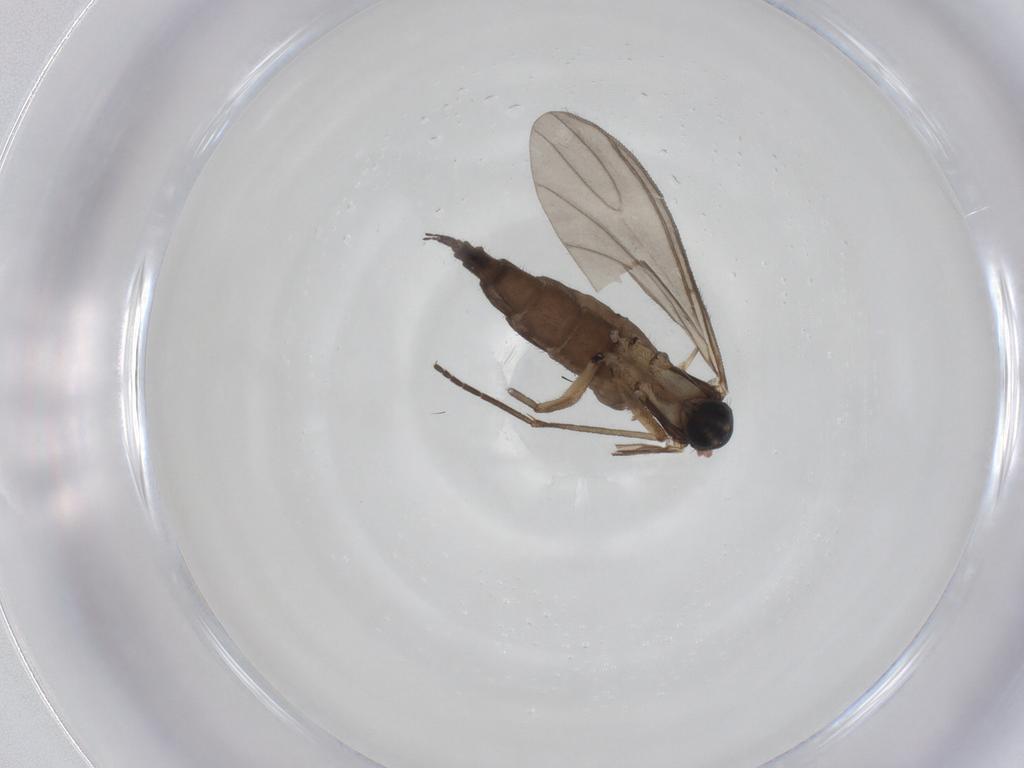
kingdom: Animalia
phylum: Arthropoda
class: Insecta
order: Diptera
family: Sciaridae
